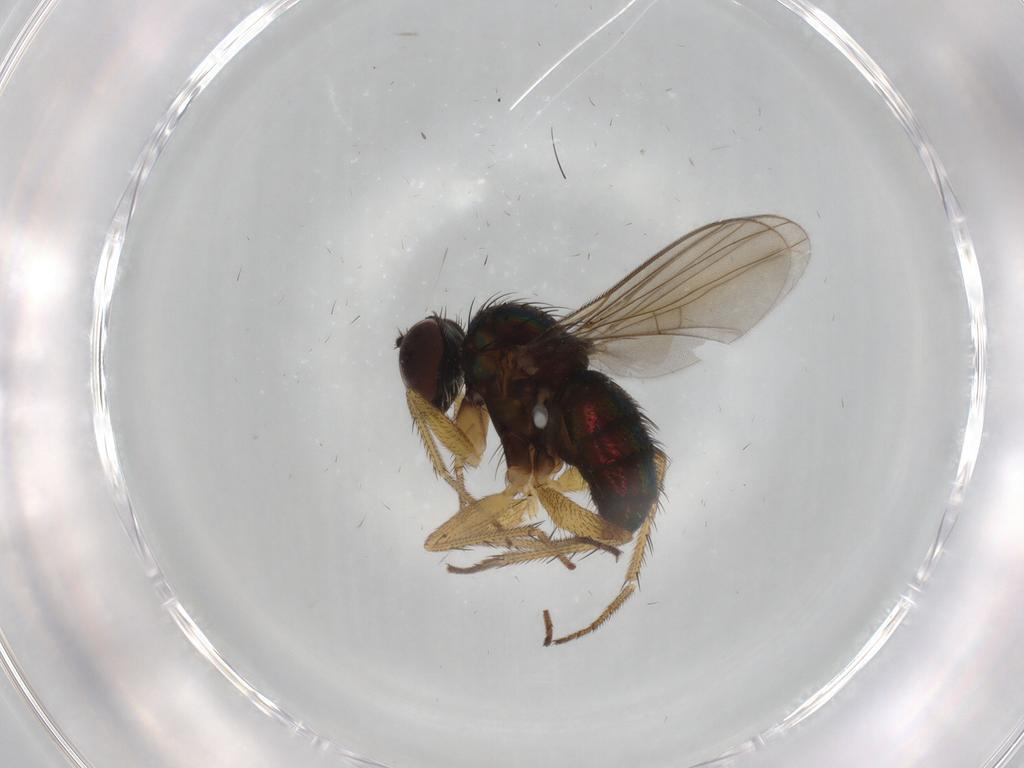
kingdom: Animalia
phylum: Arthropoda
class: Insecta
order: Diptera
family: Dolichopodidae
